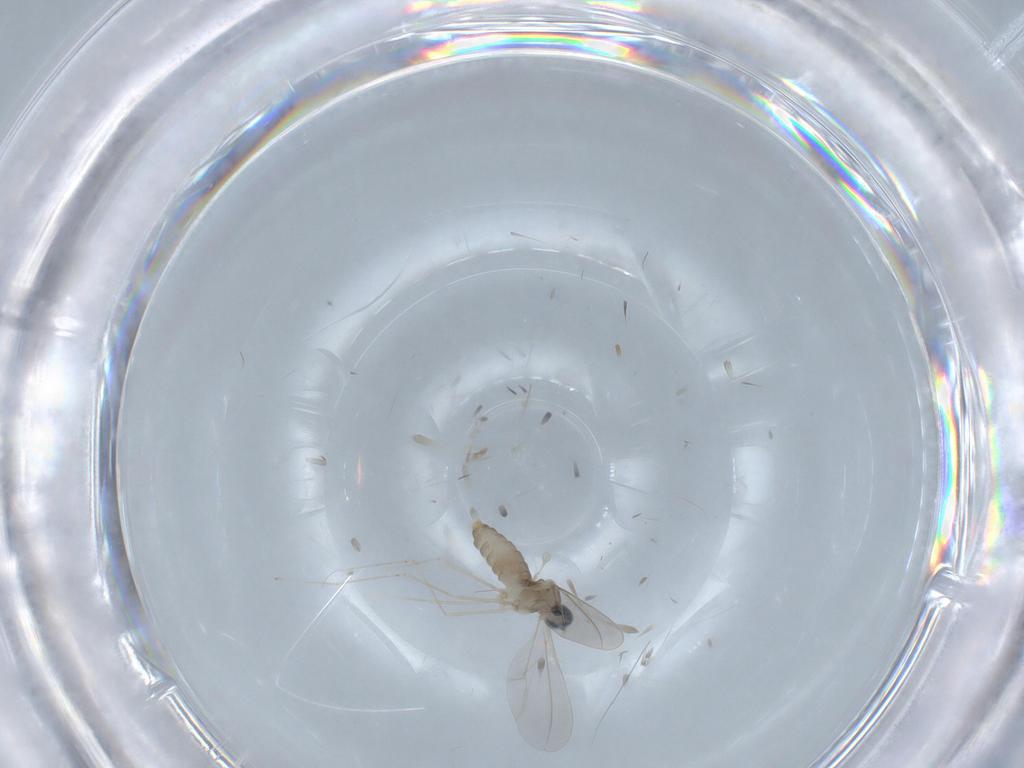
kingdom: Animalia
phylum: Arthropoda
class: Insecta
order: Diptera
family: Cecidomyiidae
